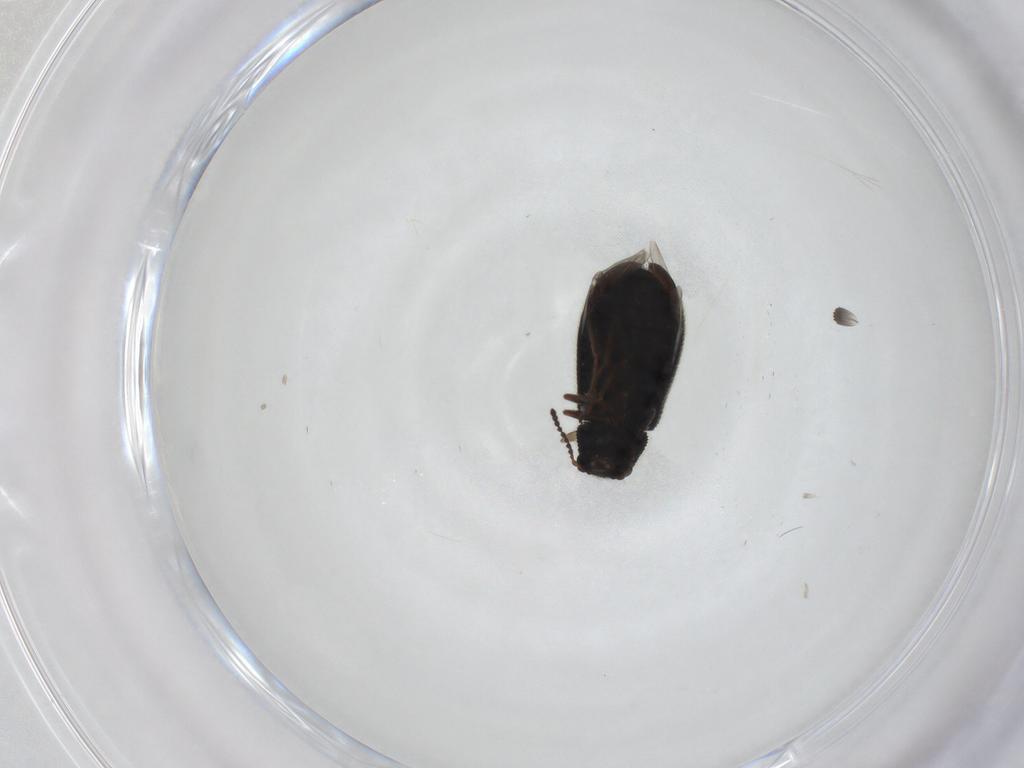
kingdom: Animalia
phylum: Arthropoda
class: Insecta
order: Coleoptera
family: Melyridae
